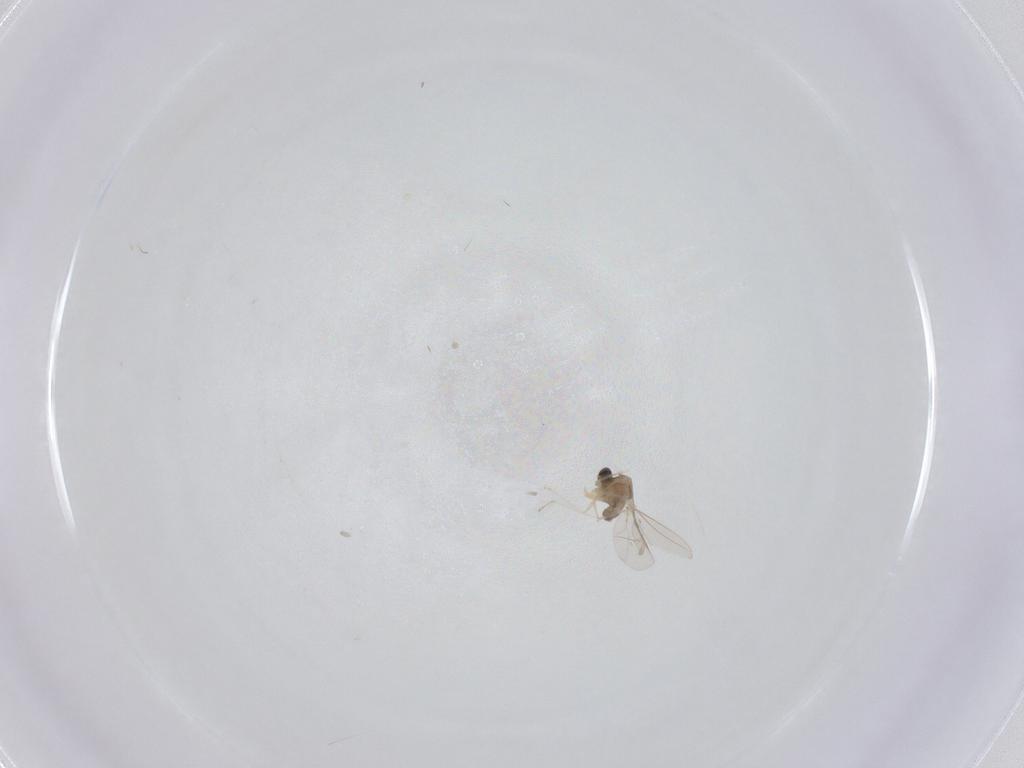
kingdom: Animalia
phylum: Arthropoda
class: Insecta
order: Diptera
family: Cecidomyiidae
